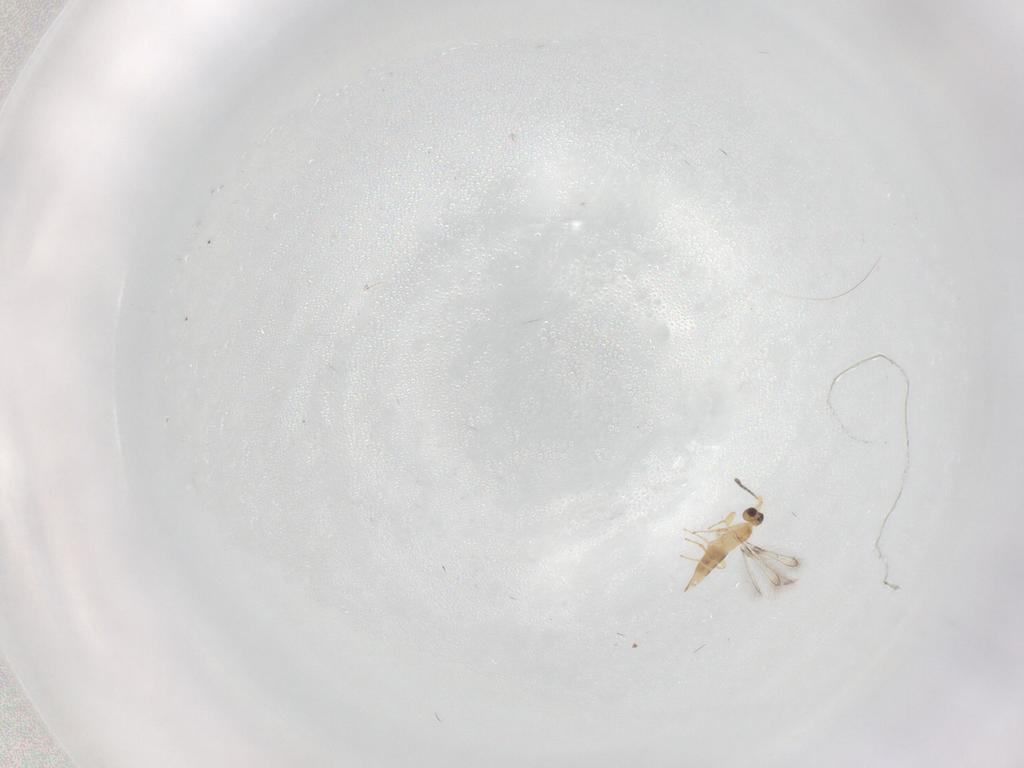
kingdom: Animalia
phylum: Arthropoda
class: Insecta
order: Hymenoptera
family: Mymaridae
